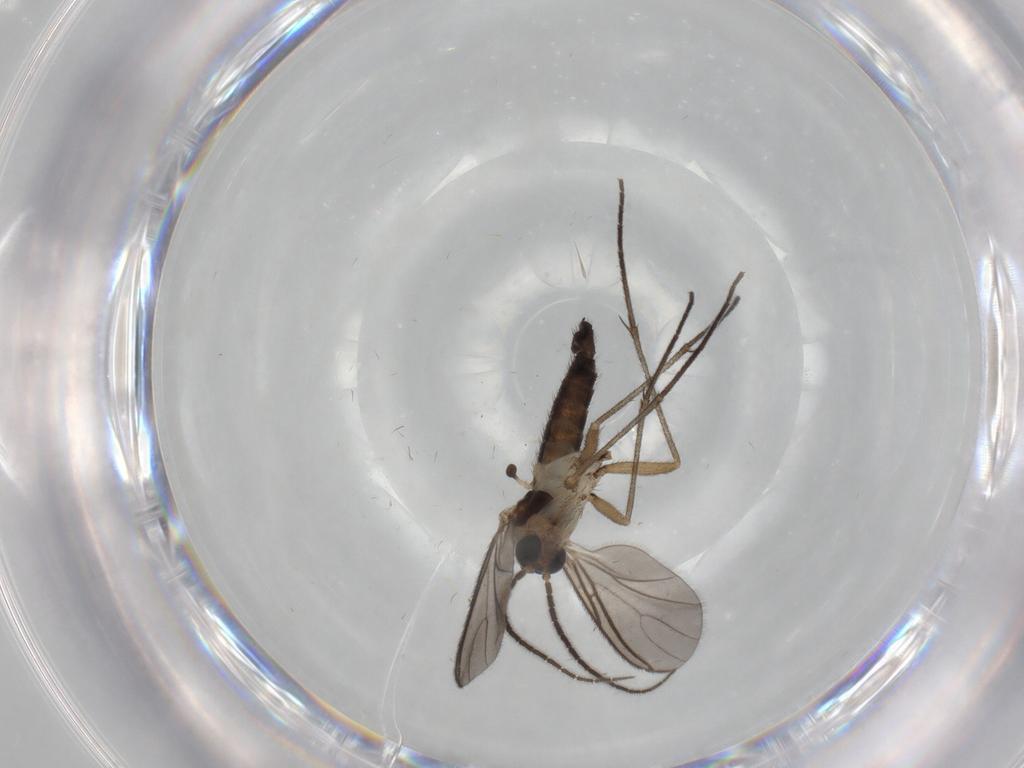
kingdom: Animalia
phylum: Arthropoda
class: Insecta
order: Diptera
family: Sciaridae
